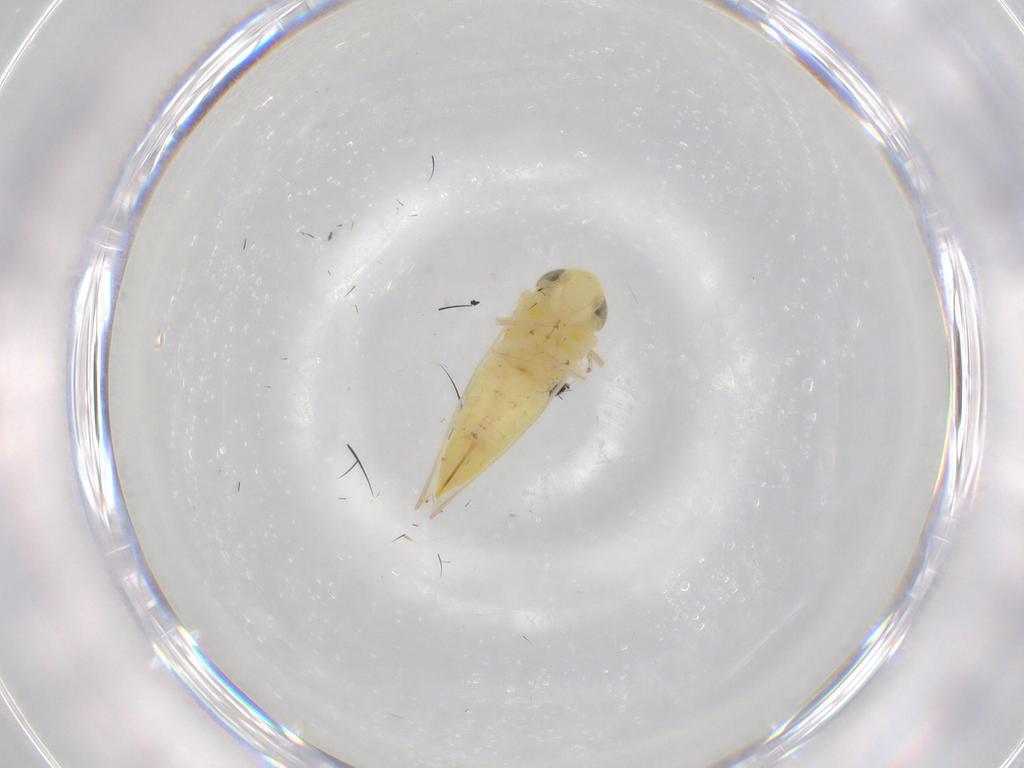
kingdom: Animalia
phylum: Arthropoda
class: Insecta
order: Hemiptera
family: Cicadellidae
